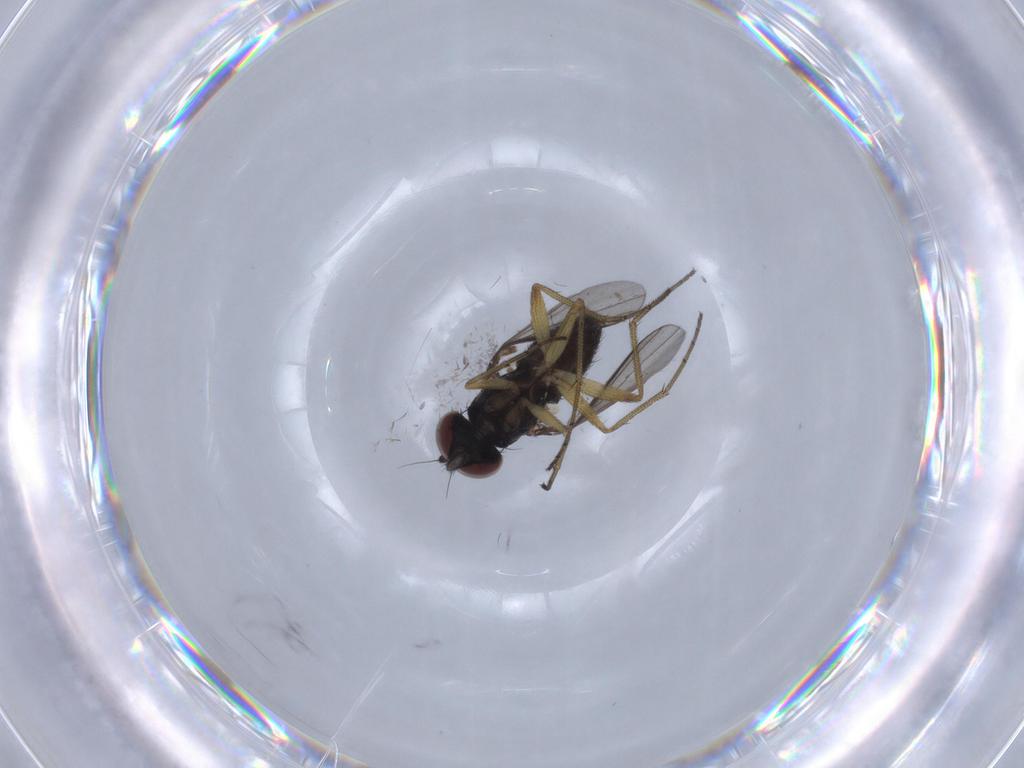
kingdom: Animalia
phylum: Arthropoda
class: Insecta
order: Diptera
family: Dolichopodidae
